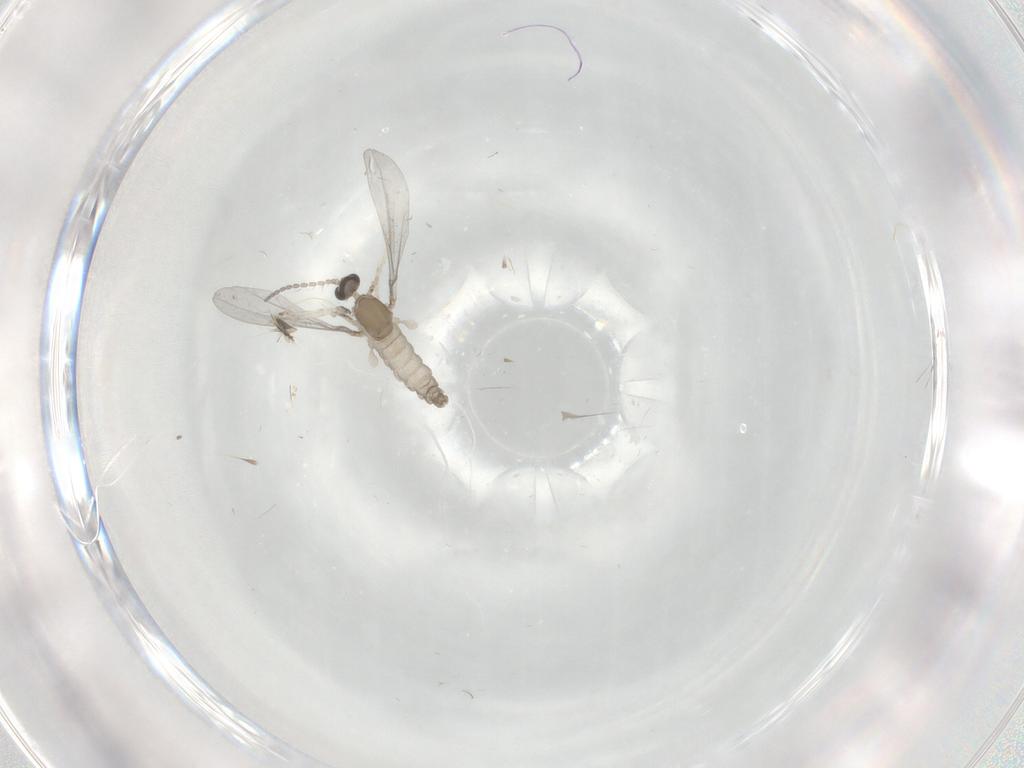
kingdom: Animalia
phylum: Arthropoda
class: Insecta
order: Diptera
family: Cecidomyiidae
